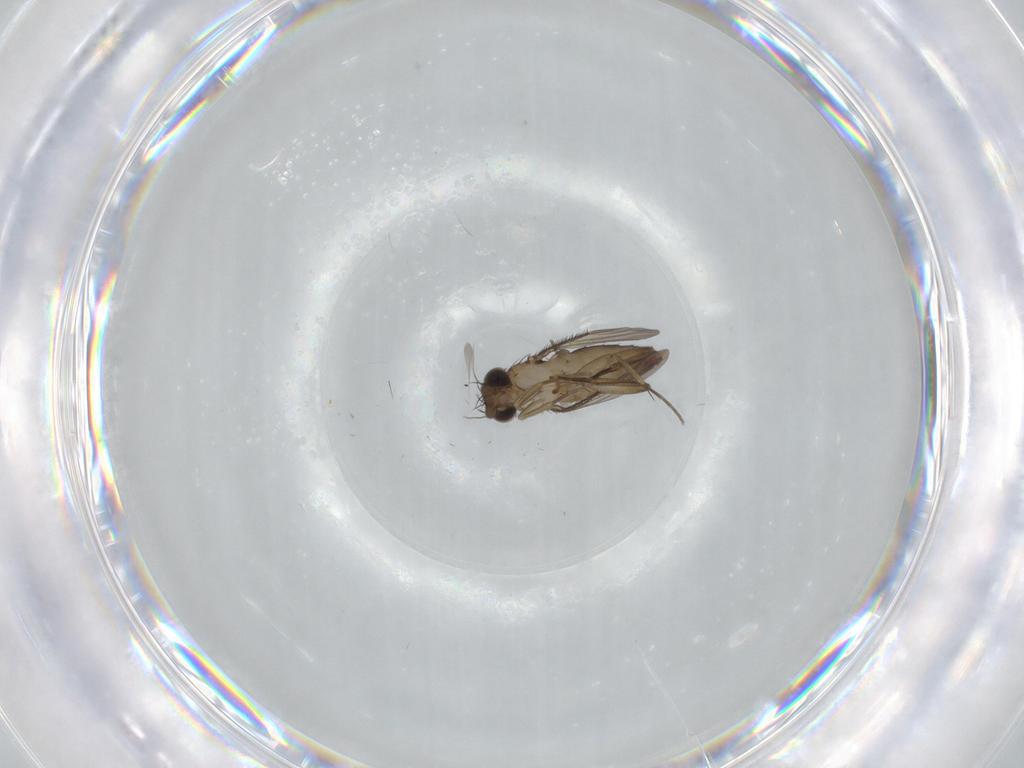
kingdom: Animalia
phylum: Arthropoda
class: Insecta
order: Diptera
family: Phoridae
